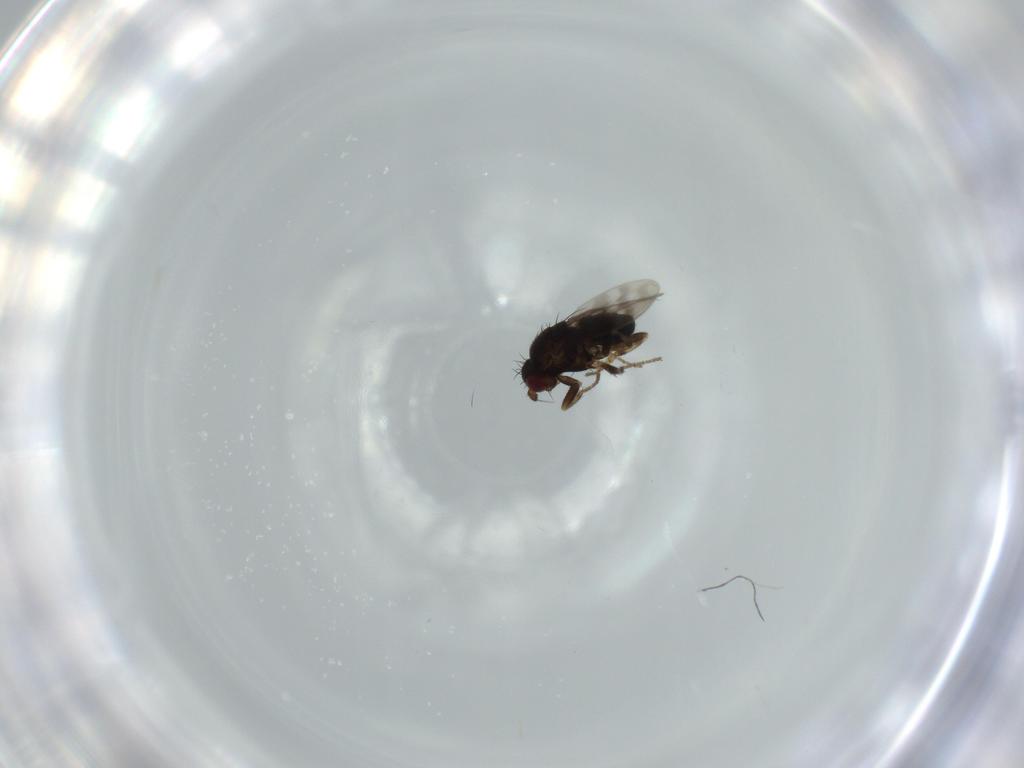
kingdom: Animalia
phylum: Arthropoda
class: Insecta
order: Diptera
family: Sphaeroceridae
